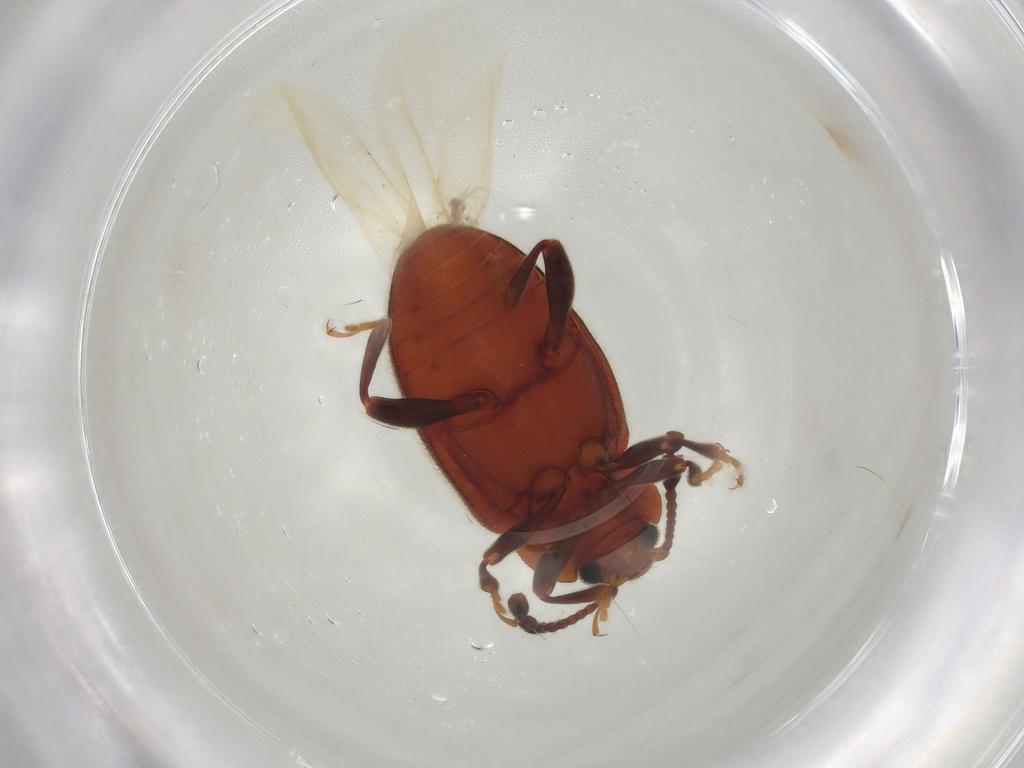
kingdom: Animalia
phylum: Arthropoda
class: Insecta
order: Coleoptera
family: Endomychidae
